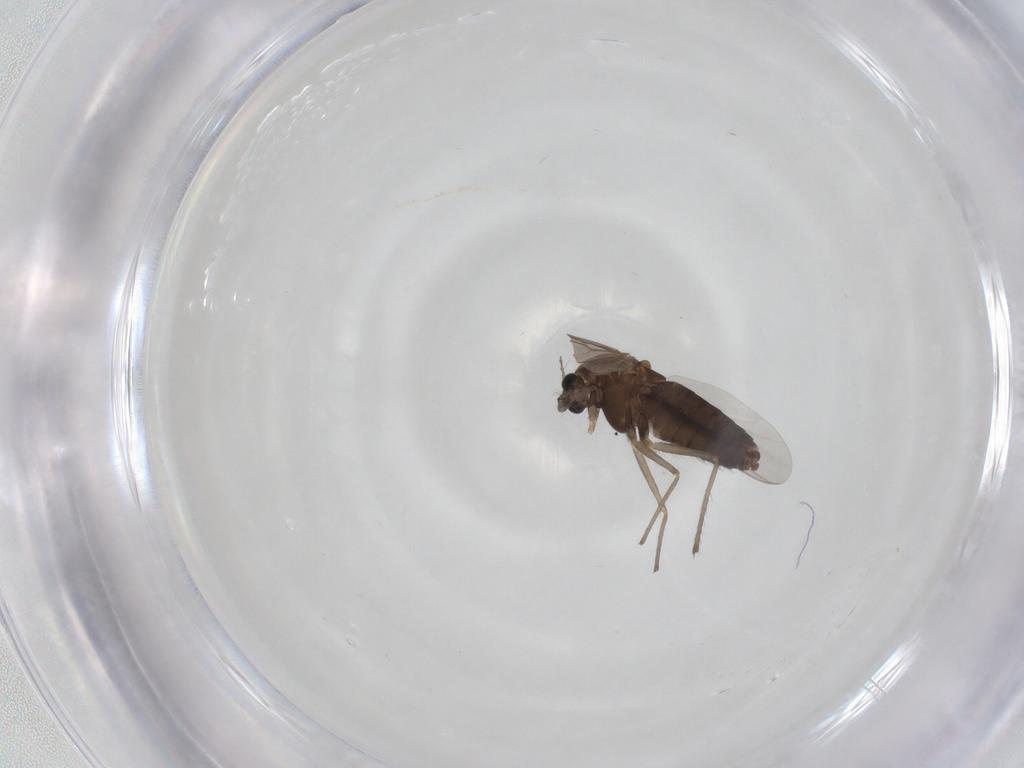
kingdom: Animalia
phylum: Arthropoda
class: Insecta
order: Diptera
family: Chironomidae
